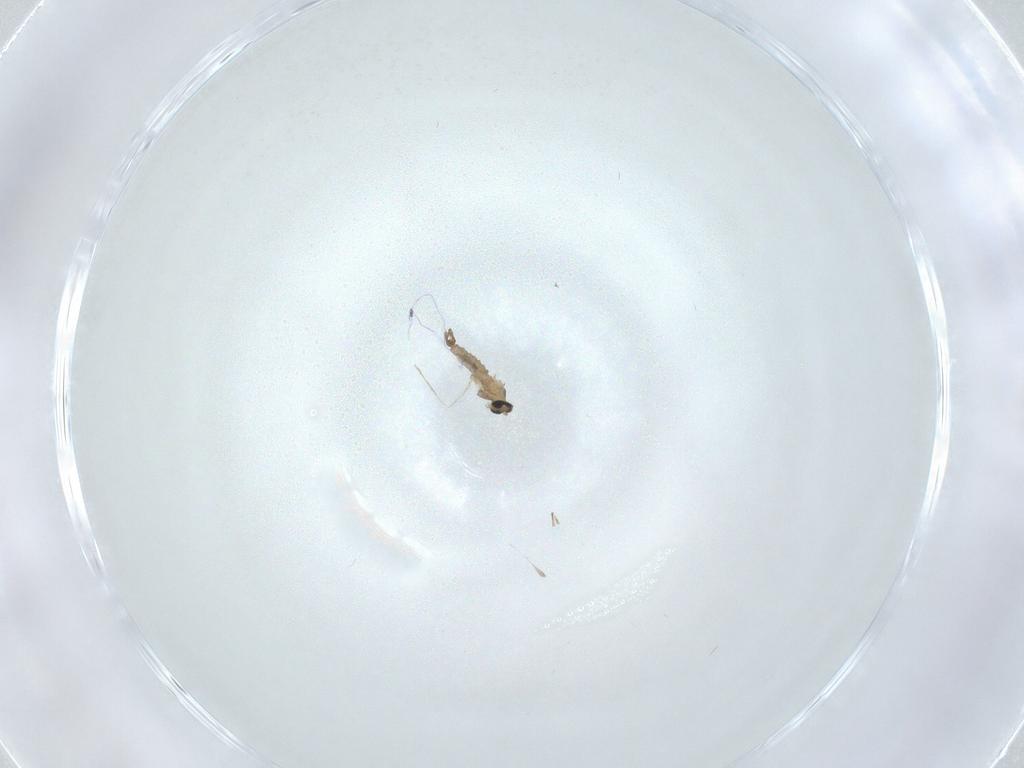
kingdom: Animalia
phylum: Arthropoda
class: Insecta
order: Diptera
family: Cecidomyiidae
